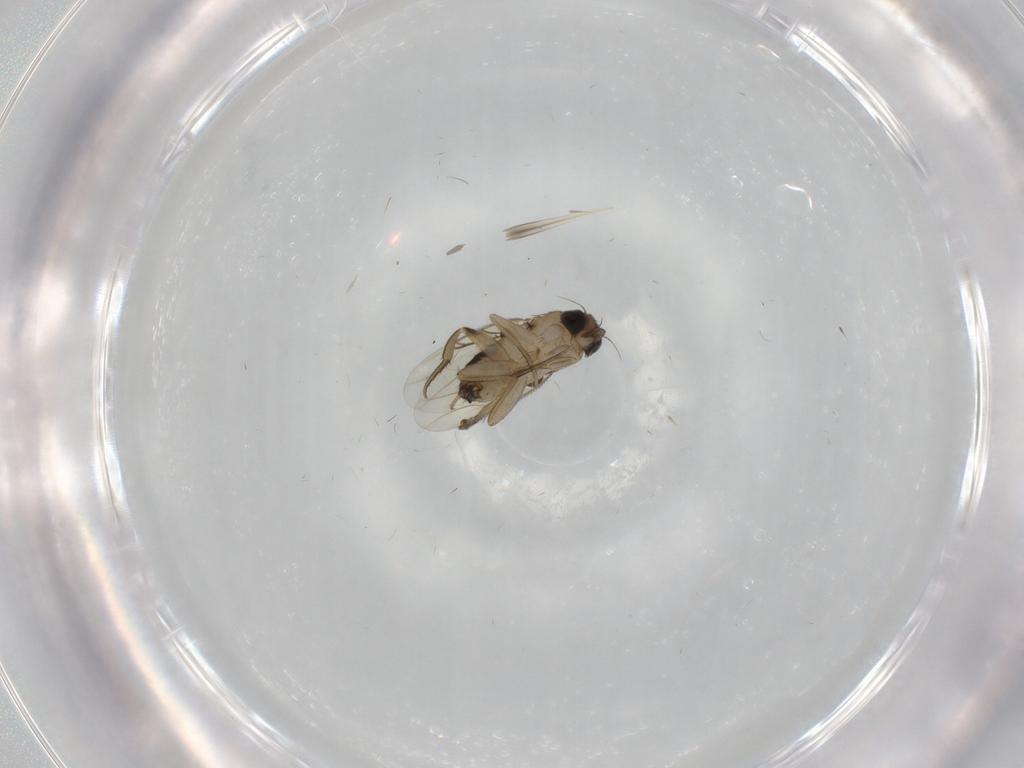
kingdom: Animalia
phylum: Arthropoda
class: Insecta
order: Diptera
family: Phoridae
